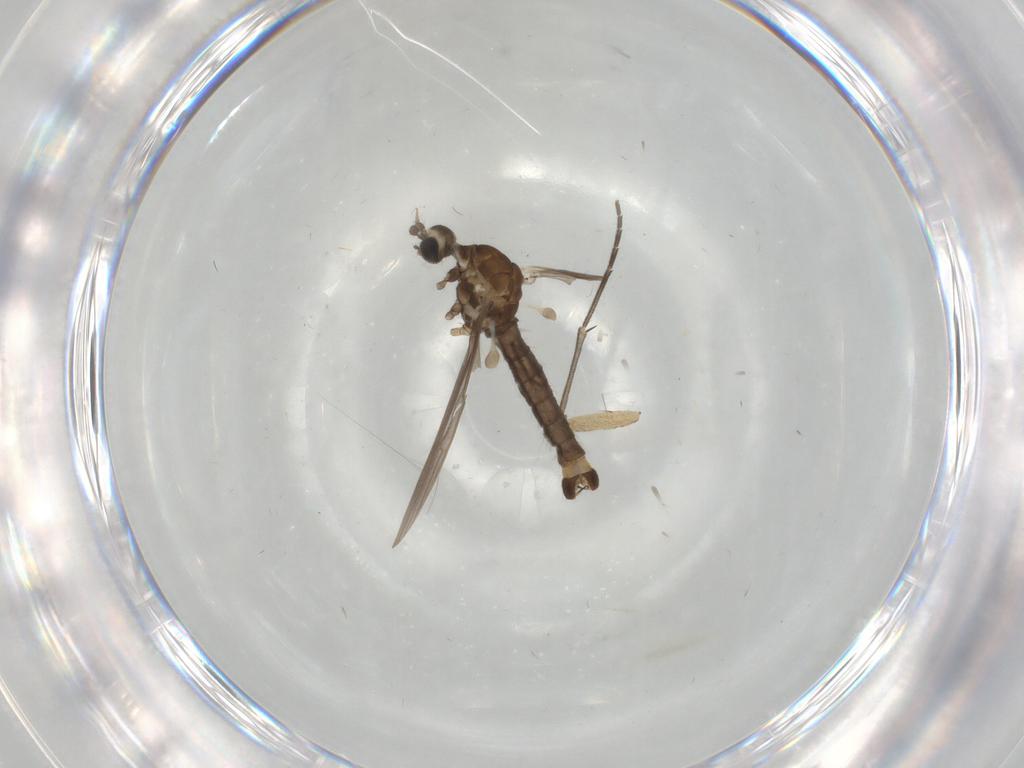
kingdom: Animalia
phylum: Arthropoda
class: Insecta
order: Diptera
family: Limoniidae
